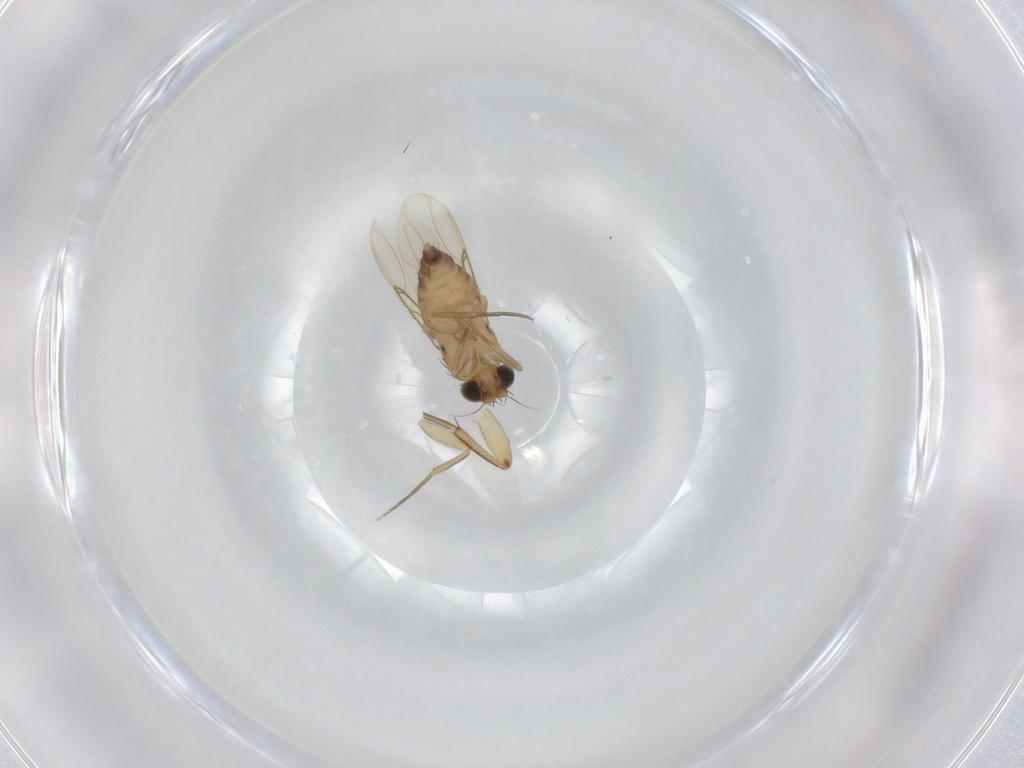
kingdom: Animalia
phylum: Arthropoda
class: Insecta
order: Diptera
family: Phoridae
